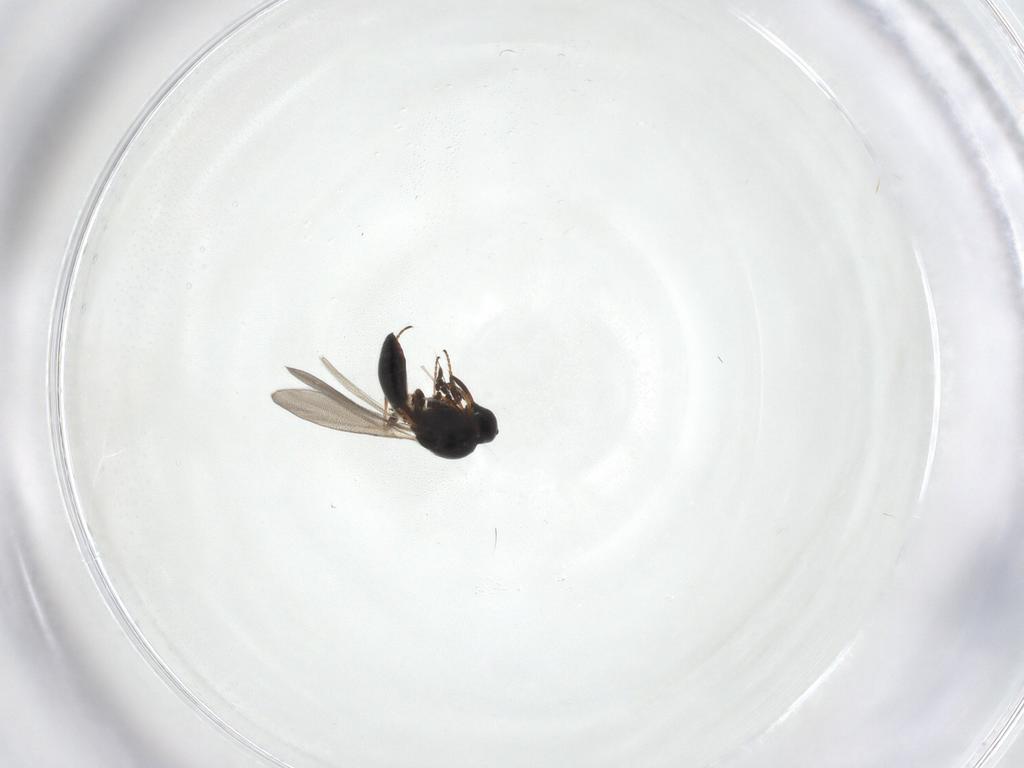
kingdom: Animalia
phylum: Arthropoda
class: Insecta
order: Hymenoptera
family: Platygastridae
